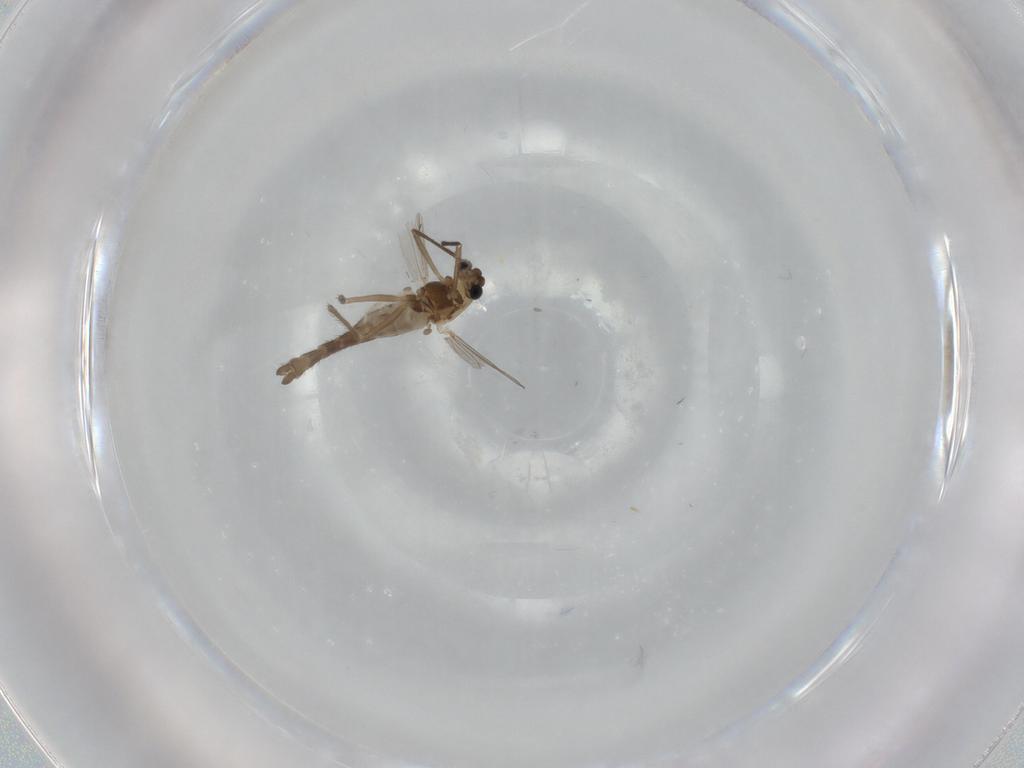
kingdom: Animalia
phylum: Arthropoda
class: Insecta
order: Diptera
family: Chironomidae
